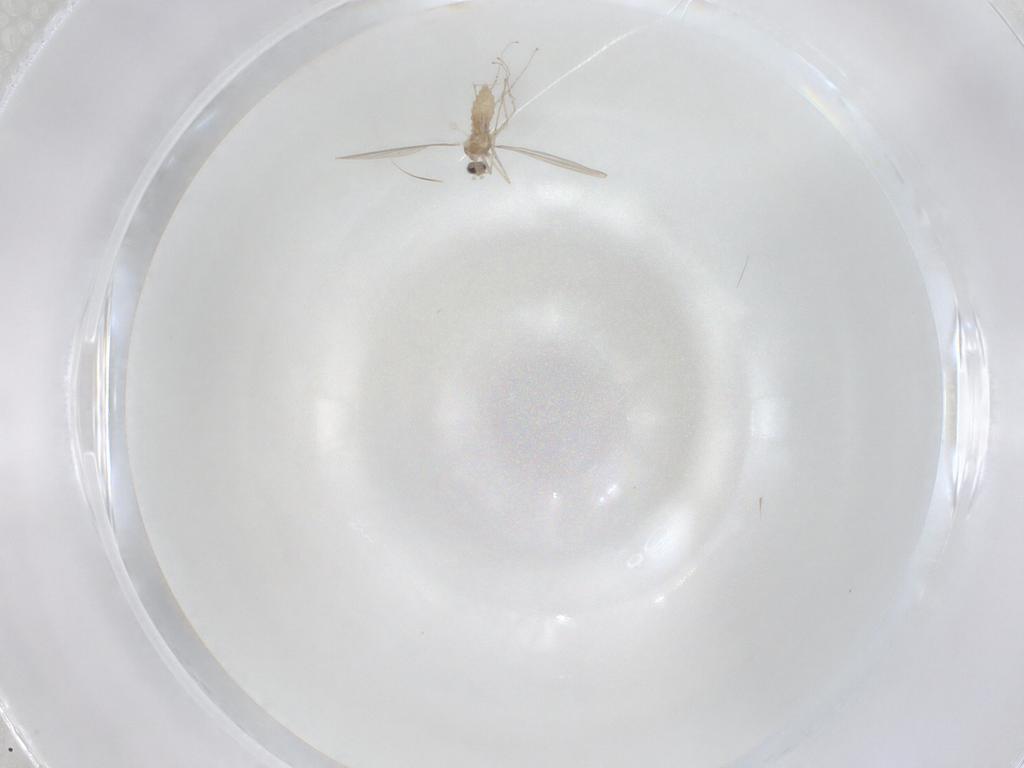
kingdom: Animalia
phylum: Arthropoda
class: Insecta
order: Diptera
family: Cecidomyiidae
